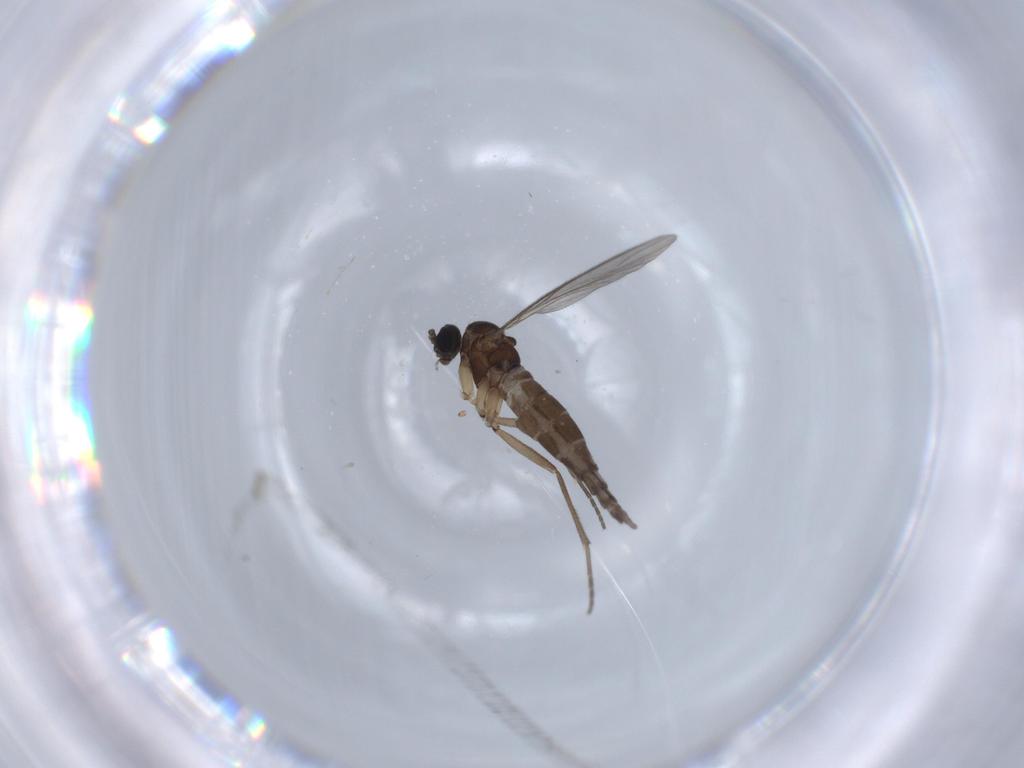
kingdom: Animalia
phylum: Arthropoda
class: Insecta
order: Diptera
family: Sciaridae
